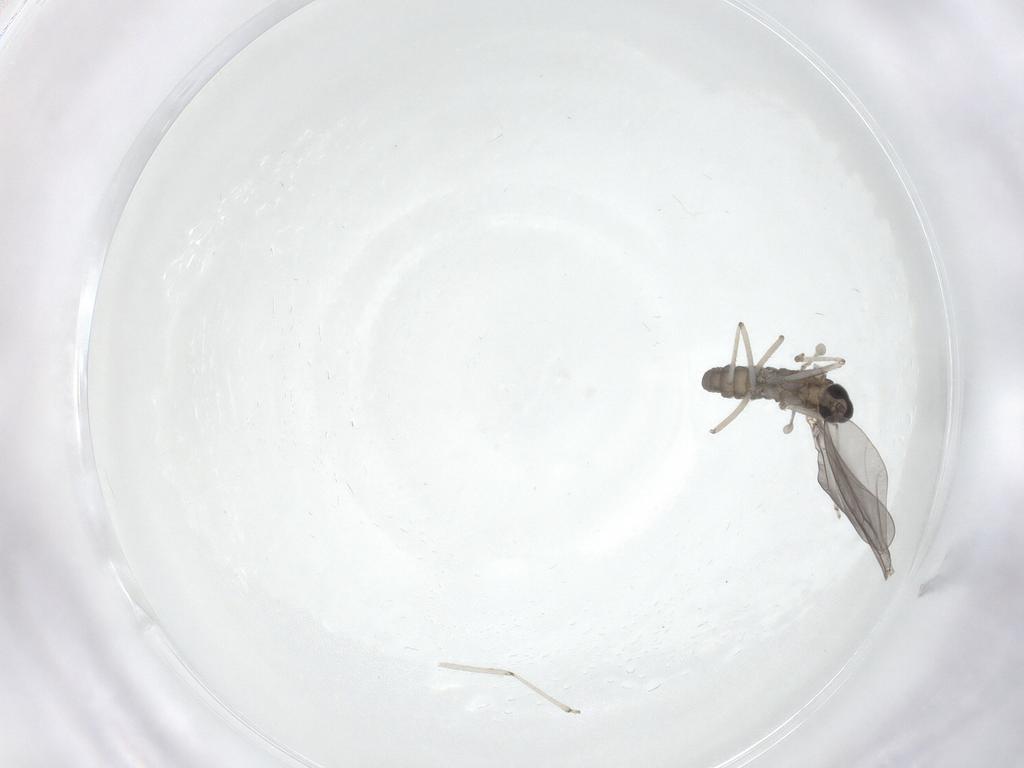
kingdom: Animalia
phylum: Arthropoda
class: Insecta
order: Diptera
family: Cecidomyiidae
